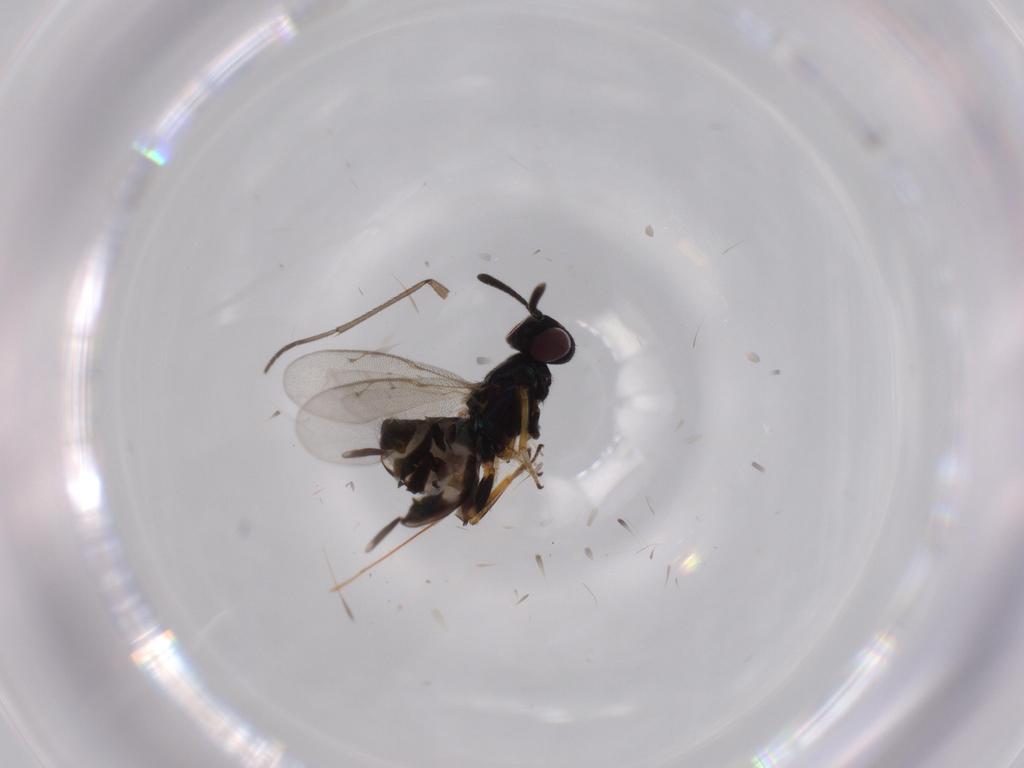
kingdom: Animalia
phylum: Arthropoda
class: Insecta
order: Hymenoptera
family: Eupelmidae
